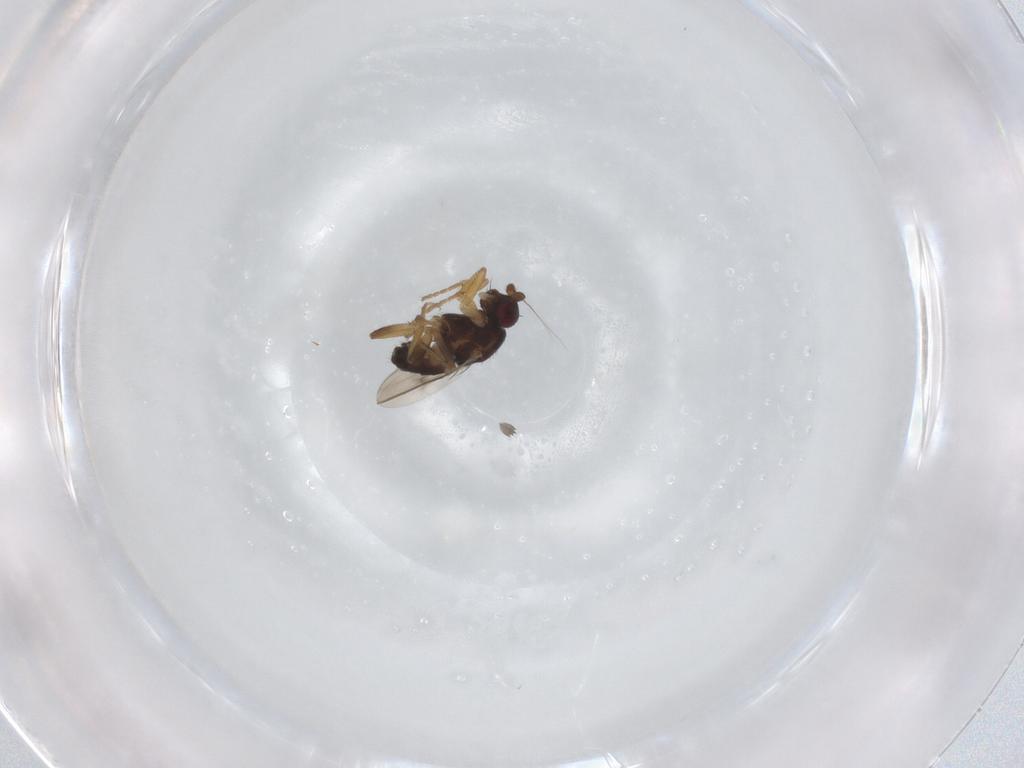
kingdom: Animalia
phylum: Arthropoda
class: Insecta
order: Diptera
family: Sphaeroceridae
